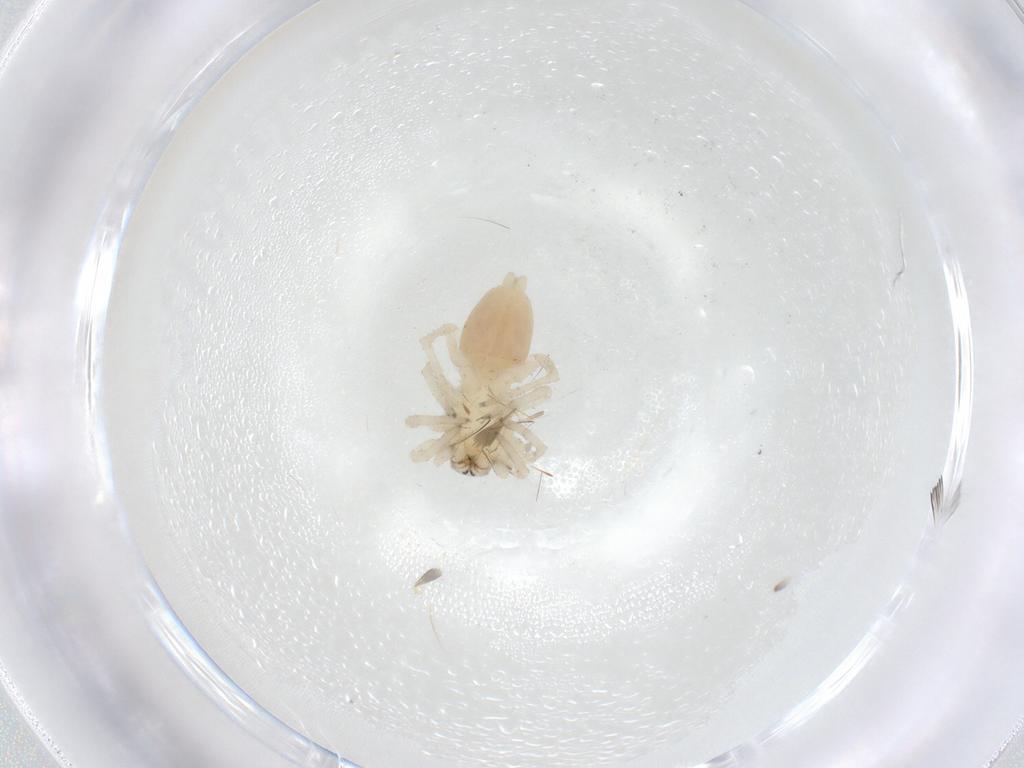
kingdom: Animalia
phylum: Arthropoda
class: Arachnida
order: Araneae
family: Clubionidae
